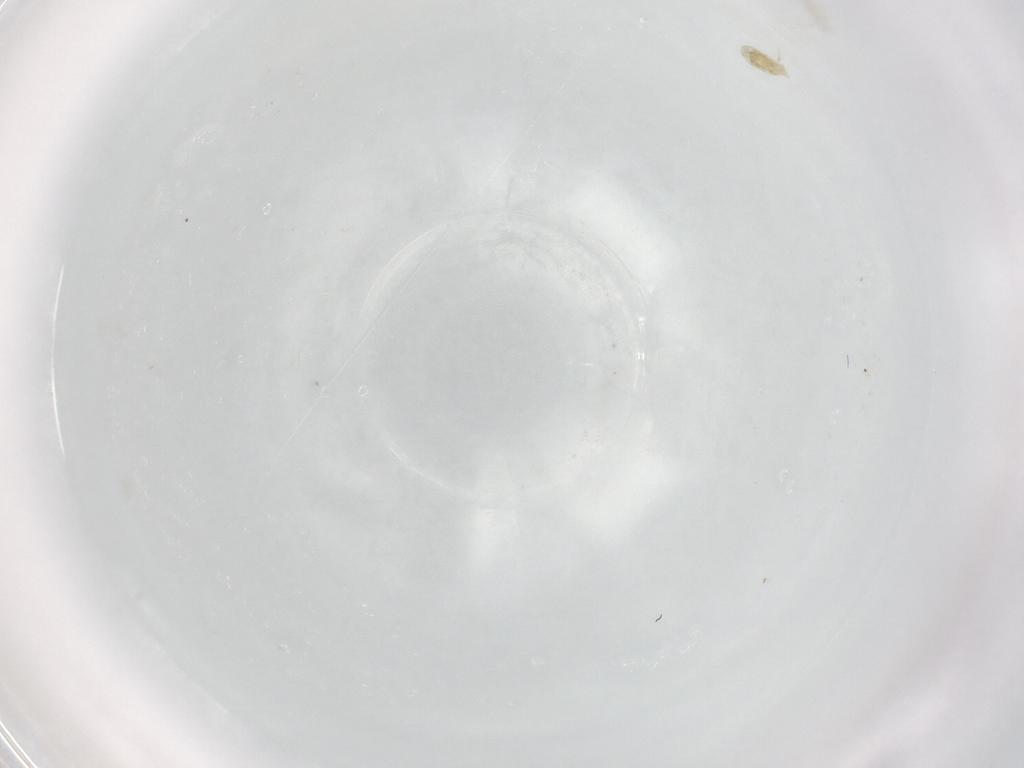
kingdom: Animalia
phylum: Arthropoda
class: Arachnida
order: Trombidiformes
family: Eupodidae
